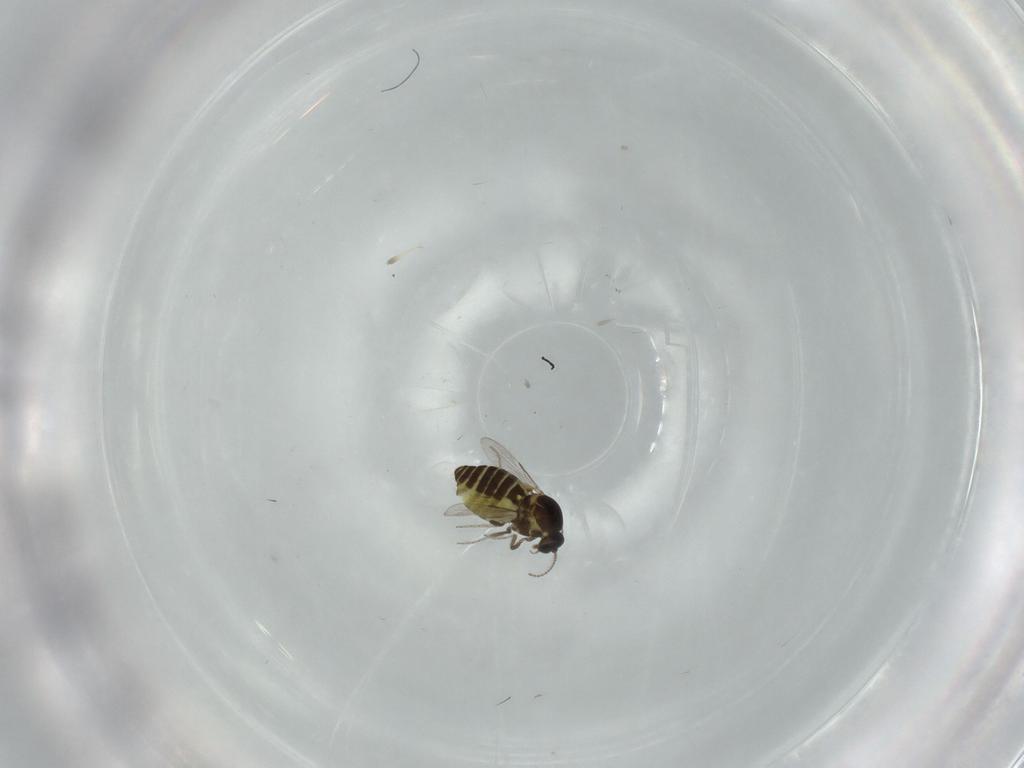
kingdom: Animalia
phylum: Arthropoda
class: Insecta
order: Diptera
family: Ceratopogonidae
